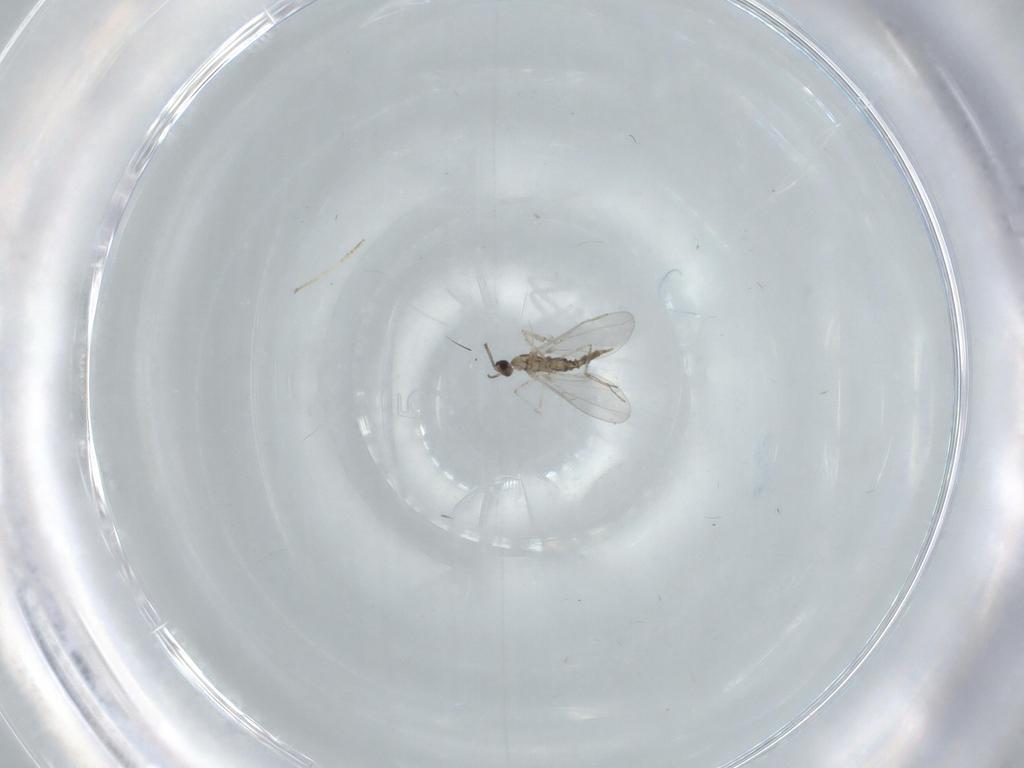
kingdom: Animalia
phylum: Arthropoda
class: Insecta
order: Diptera
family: Cecidomyiidae
